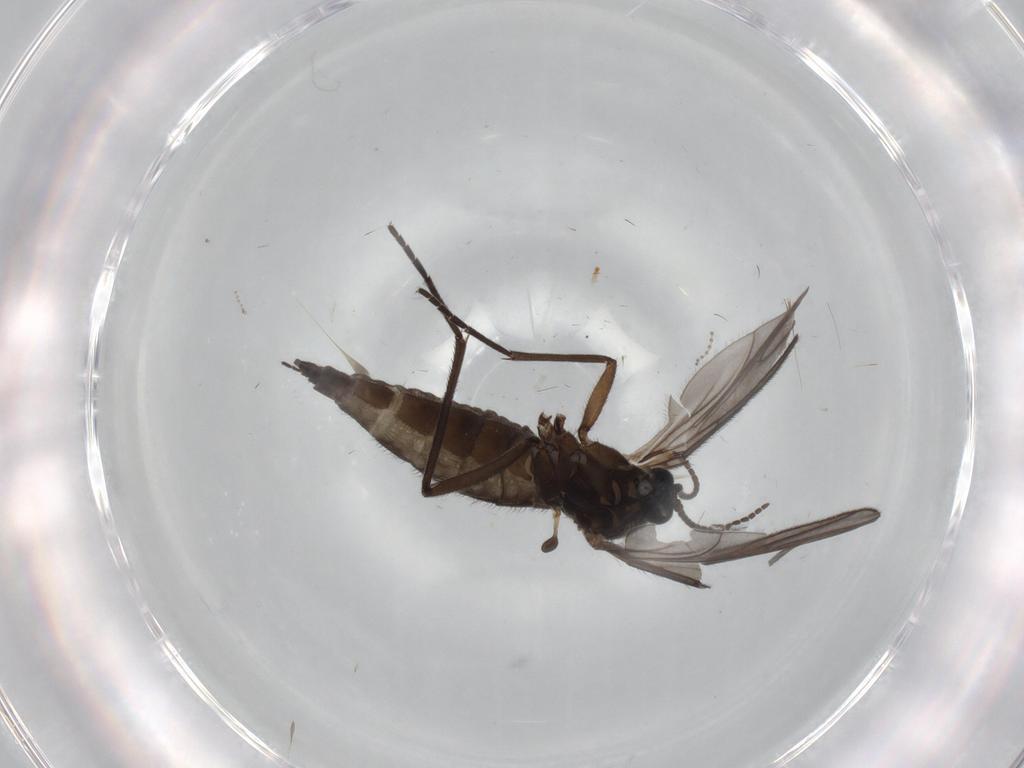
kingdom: Animalia
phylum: Arthropoda
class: Insecta
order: Diptera
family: Sciaridae
